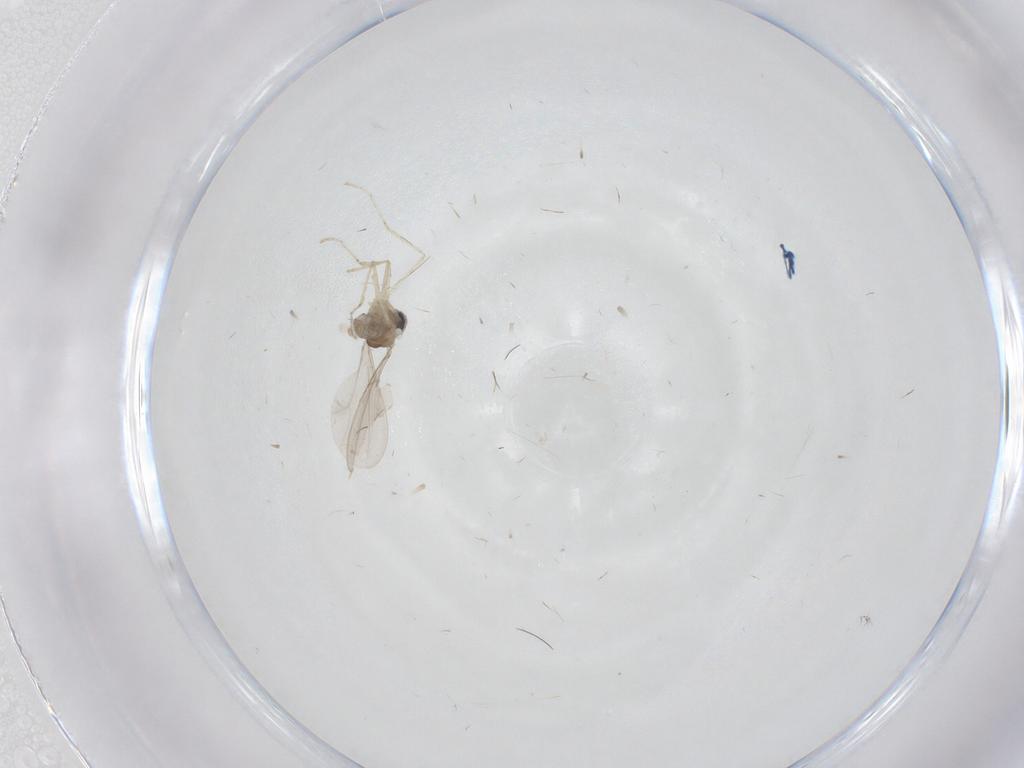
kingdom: Animalia
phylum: Arthropoda
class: Insecta
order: Diptera
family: Cecidomyiidae
